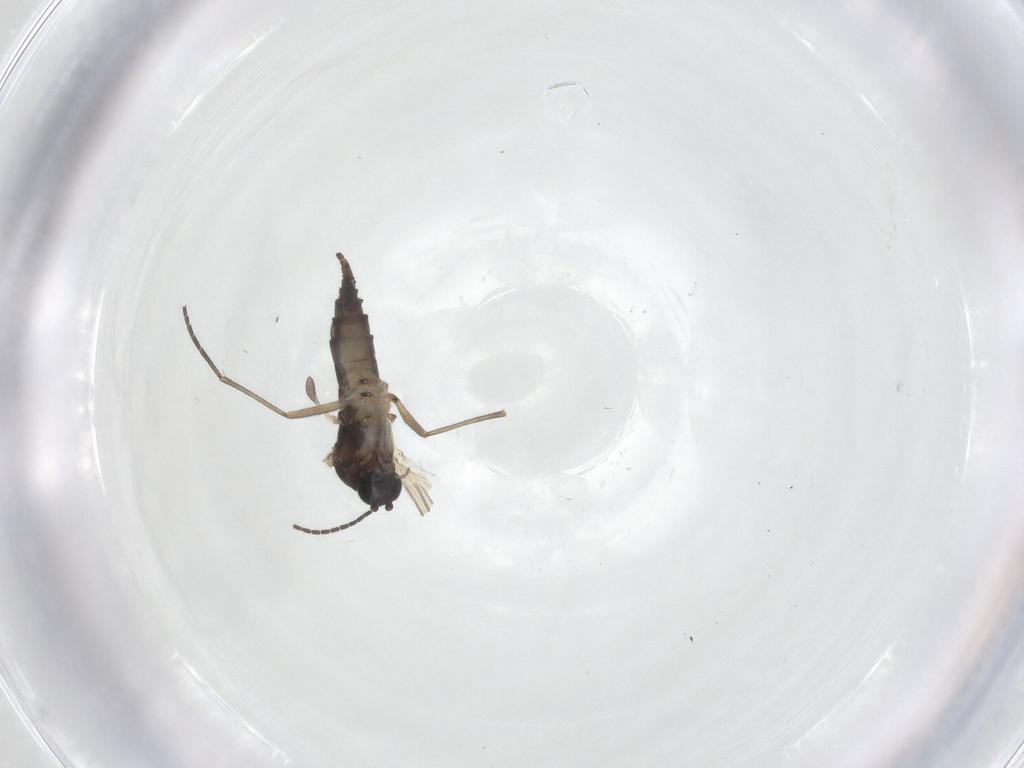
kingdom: Animalia
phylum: Arthropoda
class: Insecta
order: Diptera
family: Sciaridae
